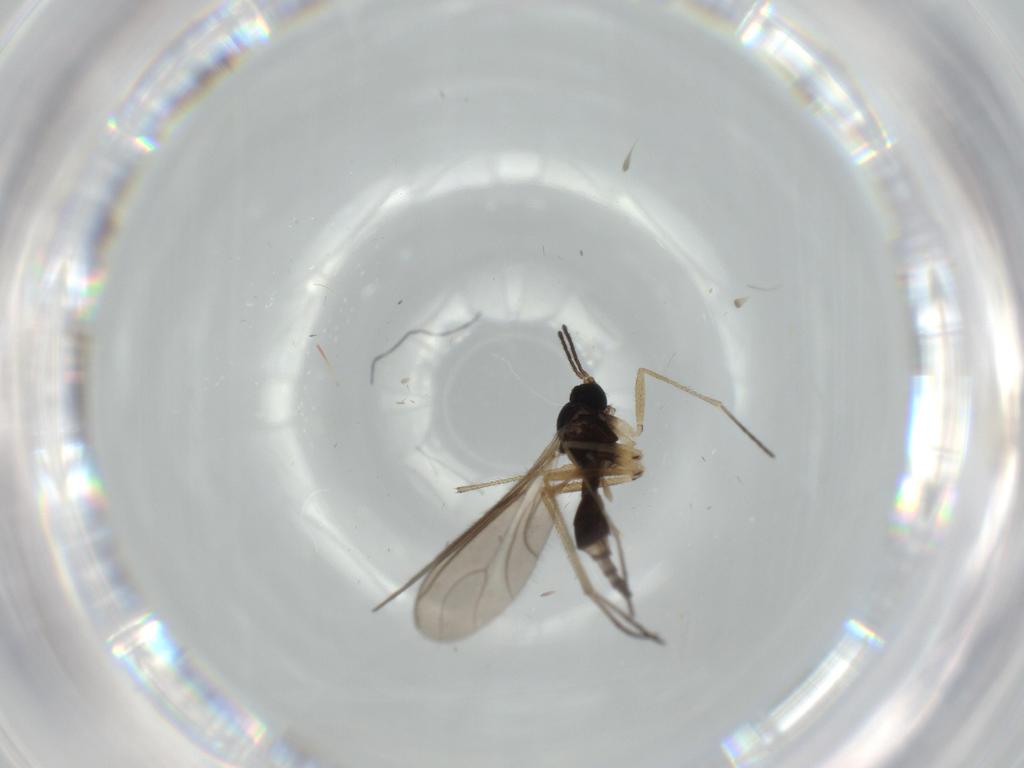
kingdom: Animalia
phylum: Arthropoda
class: Insecta
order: Diptera
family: Sciaridae
